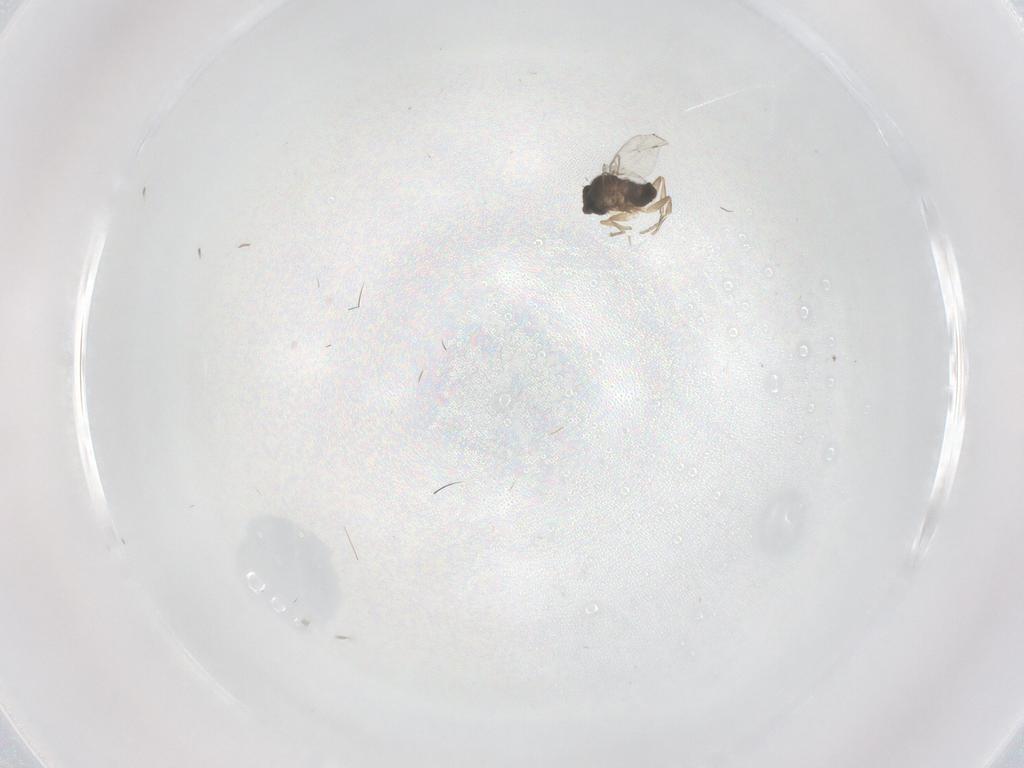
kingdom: Animalia
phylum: Arthropoda
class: Insecta
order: Diptera
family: Phoridae
